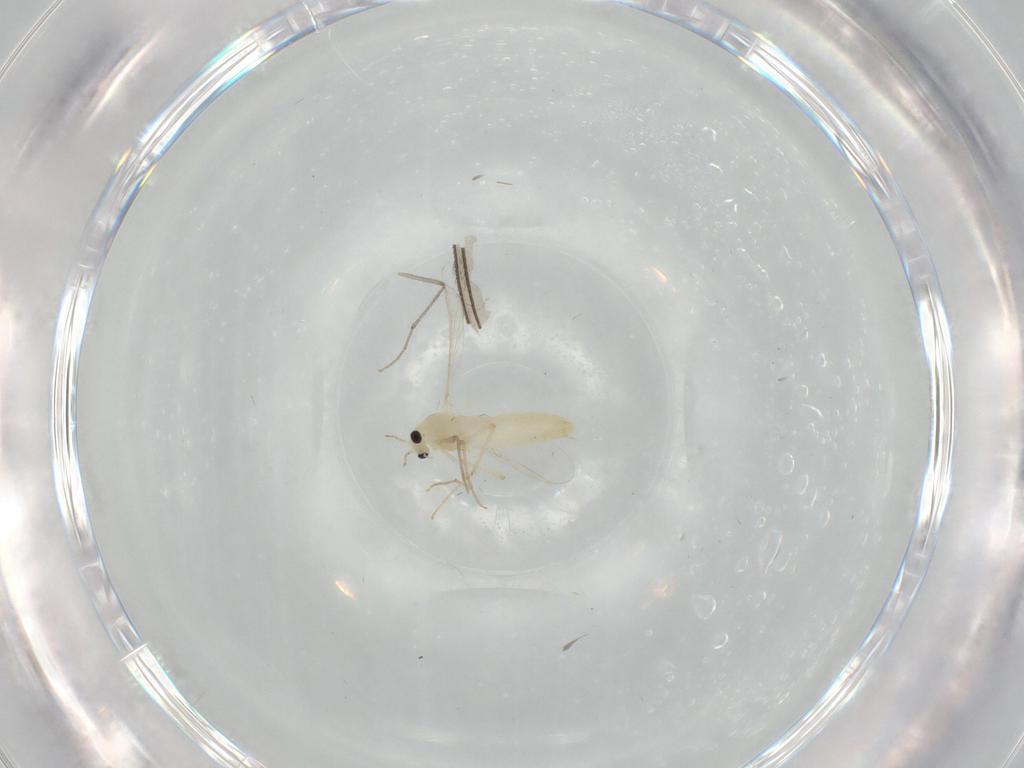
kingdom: Animalia
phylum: Arthropoda
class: Insecta
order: Diptera
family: Chironomidae
